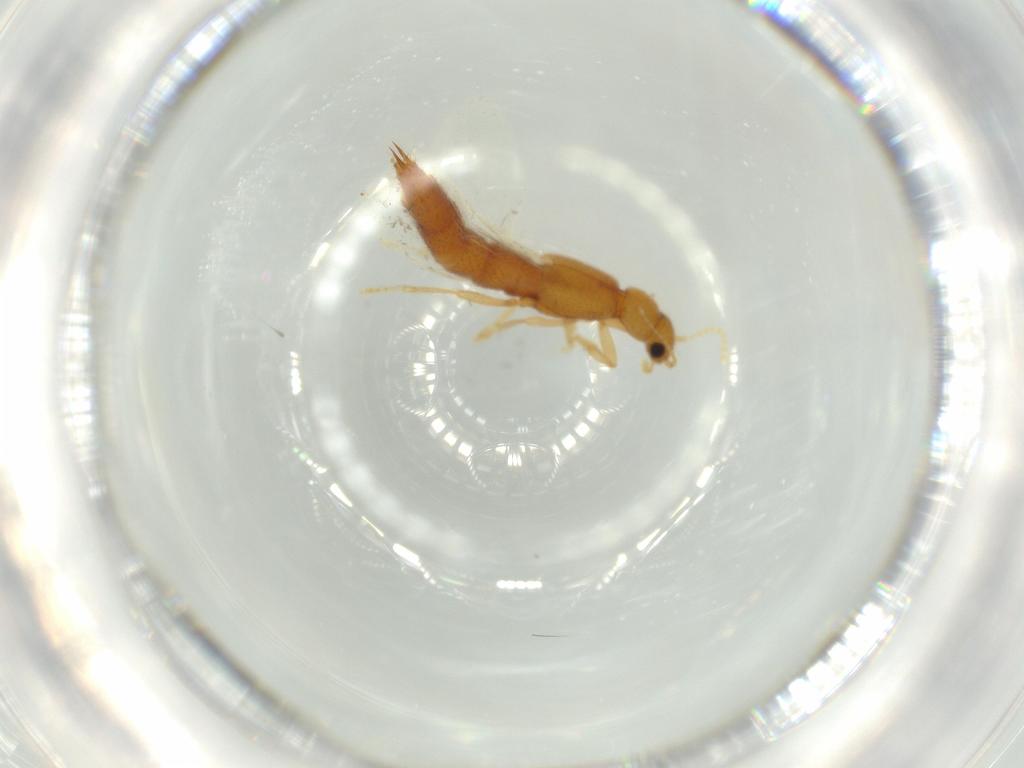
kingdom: Animalia
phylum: Arthropoda
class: Insecta
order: Coleoptera
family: Staphylinidae
